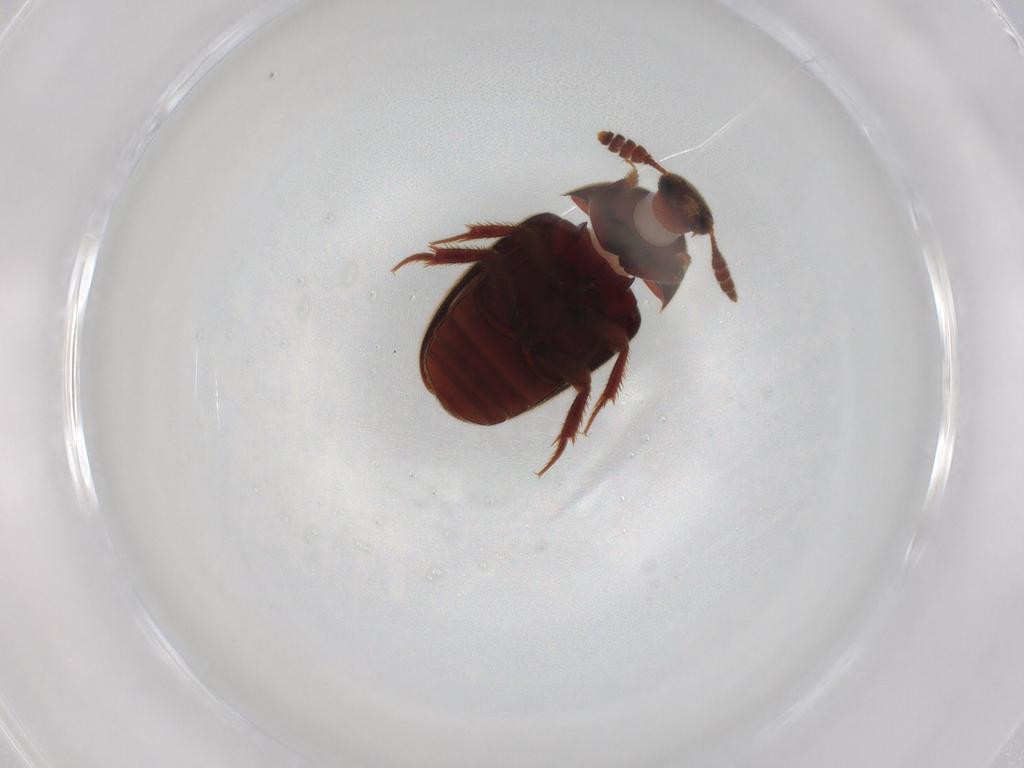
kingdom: Animalia
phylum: Arthropoda
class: Insecta
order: Coleoptera
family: Leiodidae
